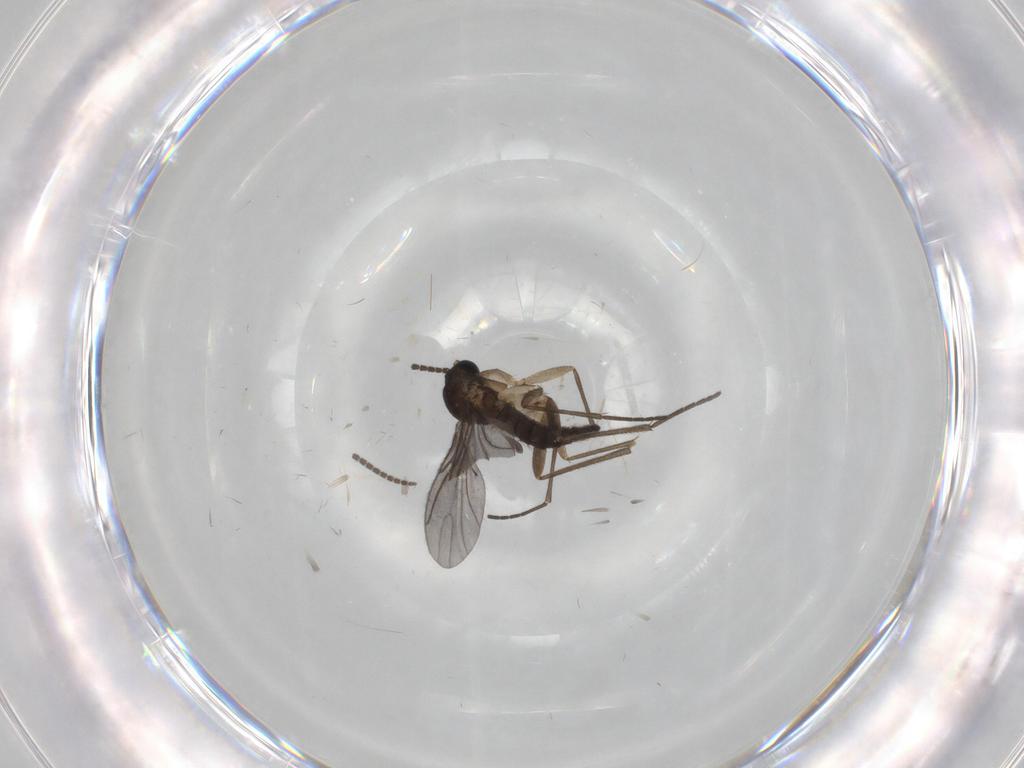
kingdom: Animalia
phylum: Arthropoda
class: Insecta
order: Diptera
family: Sciaridae
